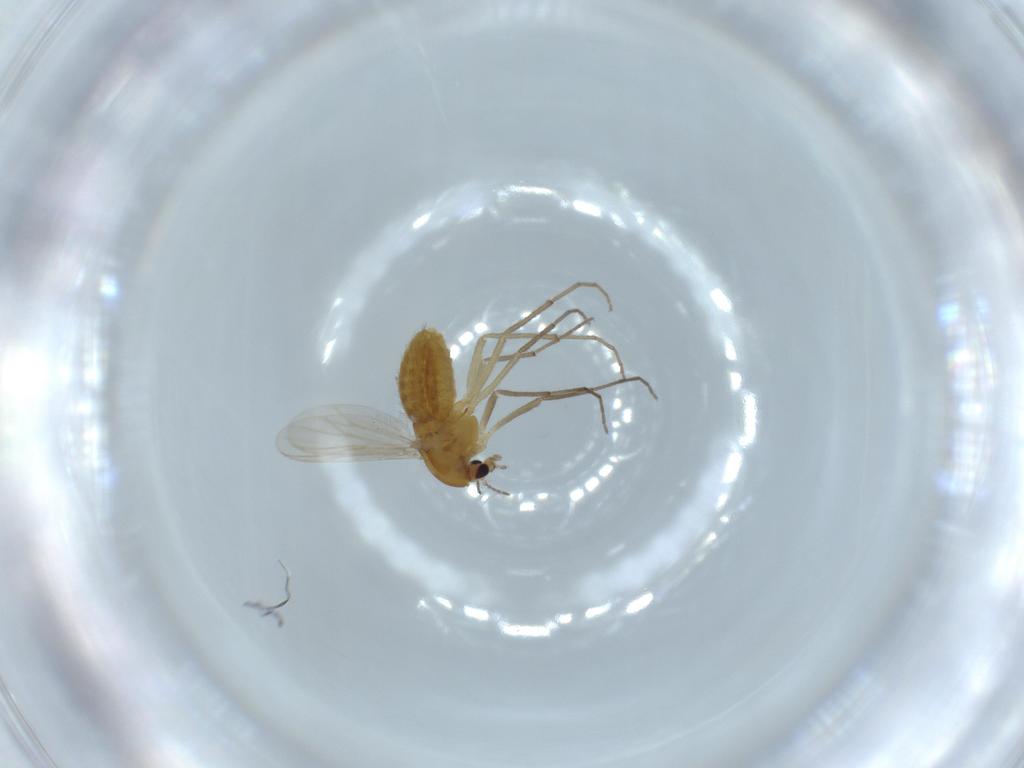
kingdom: Animalia
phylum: Arthropoda
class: Insecta
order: Diptera
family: Chironomidae
